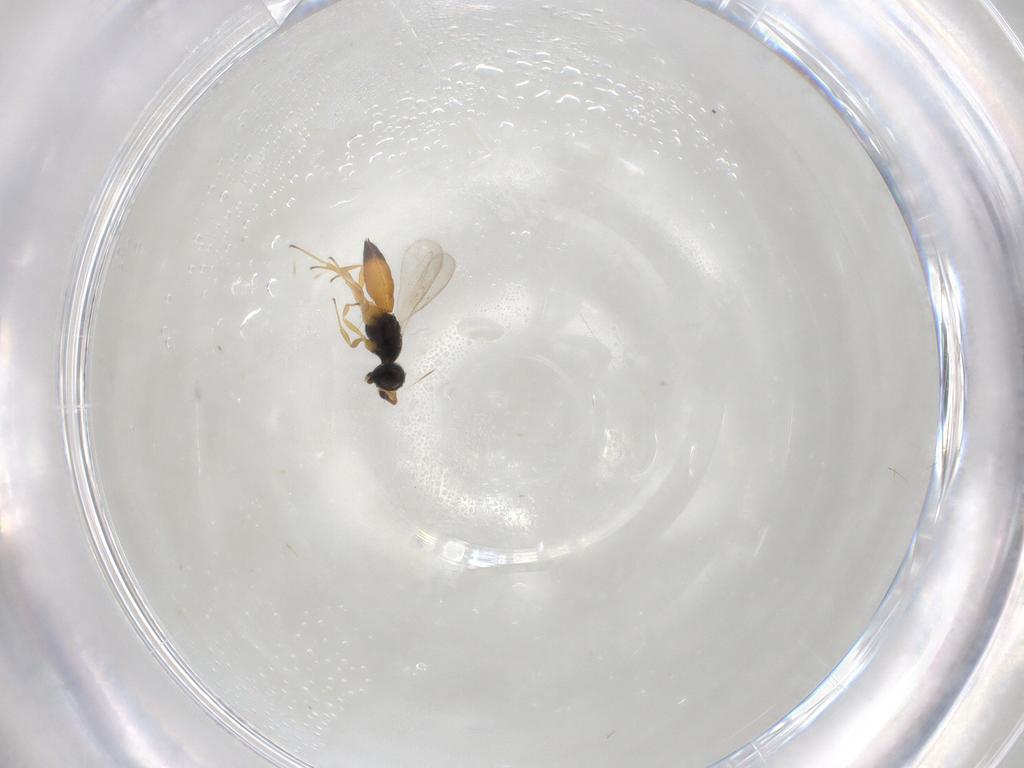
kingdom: Animalia
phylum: Arthropoda
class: Insecta
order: Hymenoptera
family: Scelionidae
